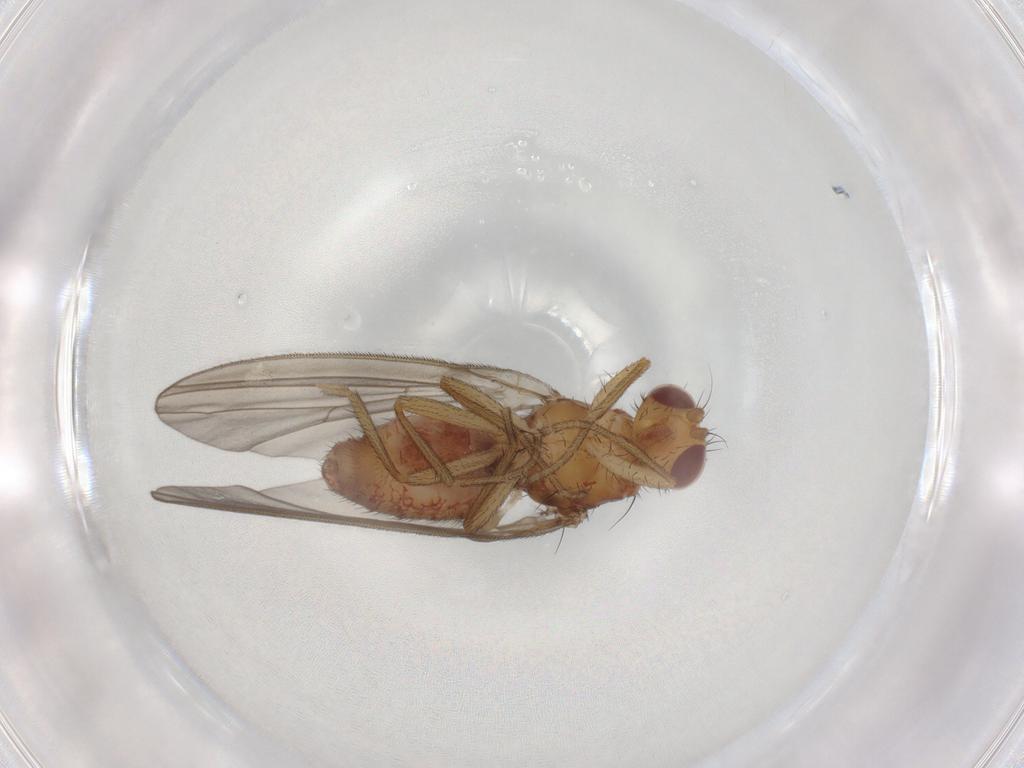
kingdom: Animalia
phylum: Arthropoda
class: Insecta
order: Diptera
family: Natalimyzidae
